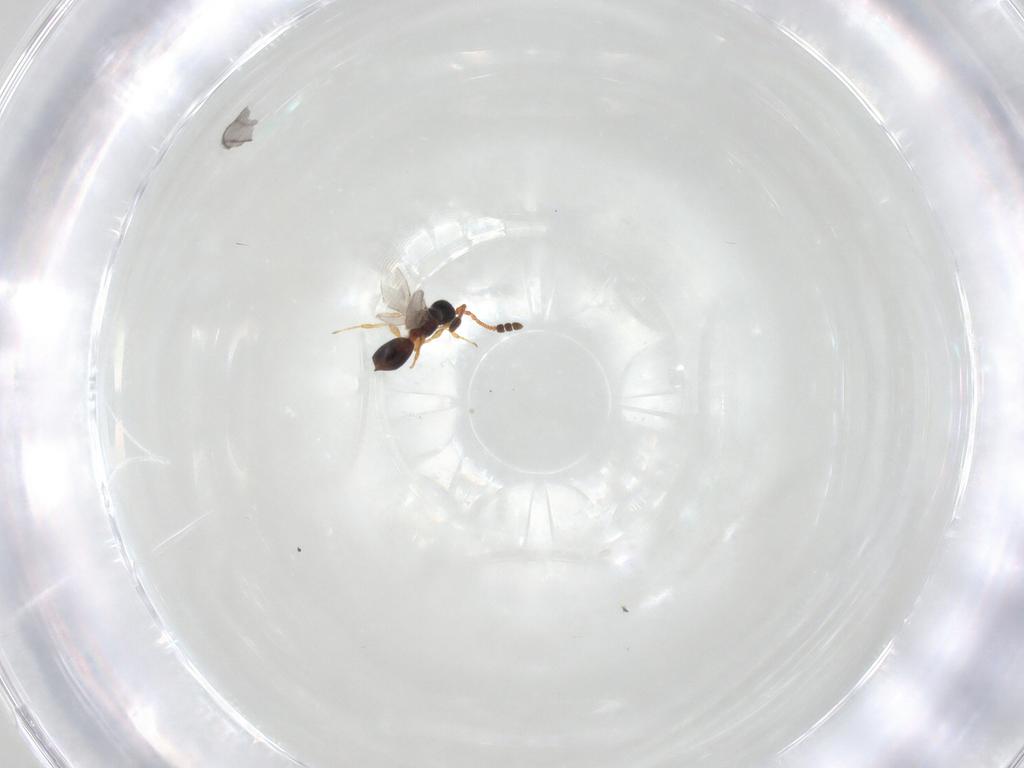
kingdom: Animalia
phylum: Arthropoda
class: Insecta
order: Hymenoptera
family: Diapriidae
